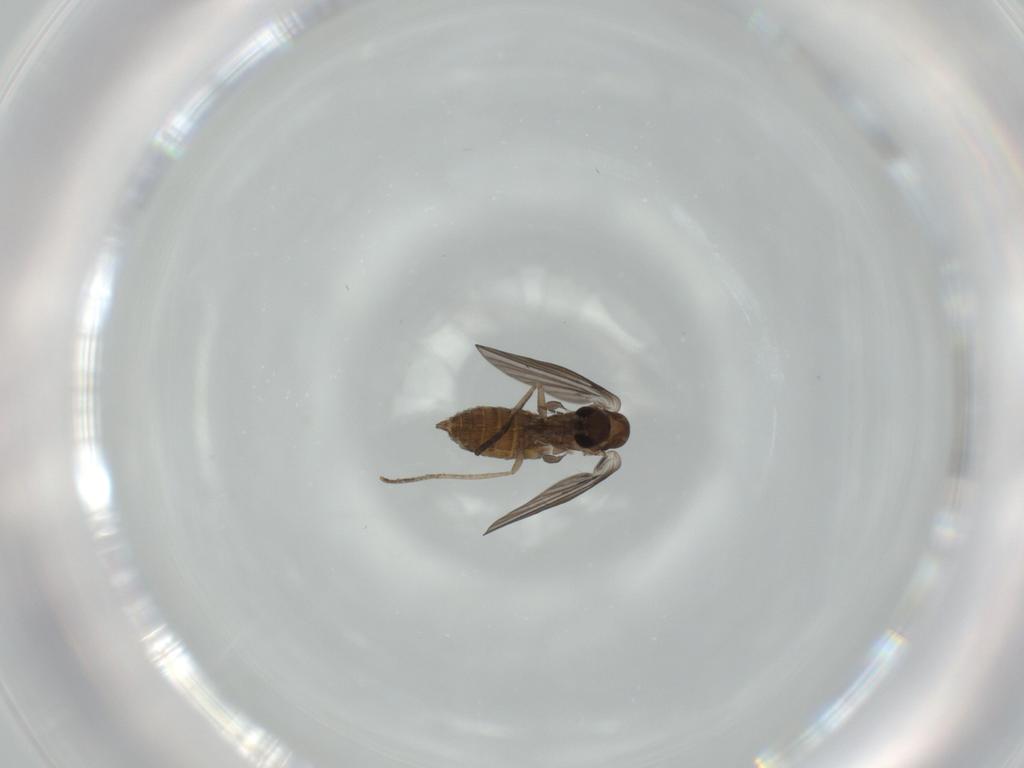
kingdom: Animalia
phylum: Arthropoda
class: Insecta
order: Diptera
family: Psychodidae
